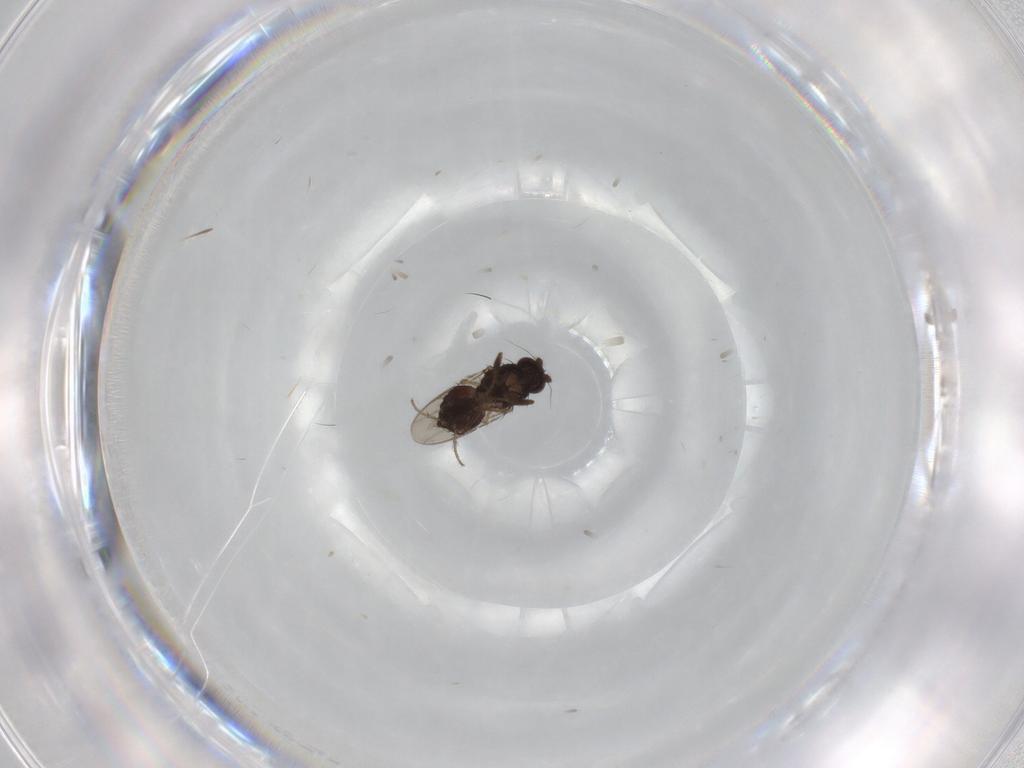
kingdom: Animalia
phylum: Arthropoda
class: Insecta
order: Diptera
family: Sphaeroceridae
